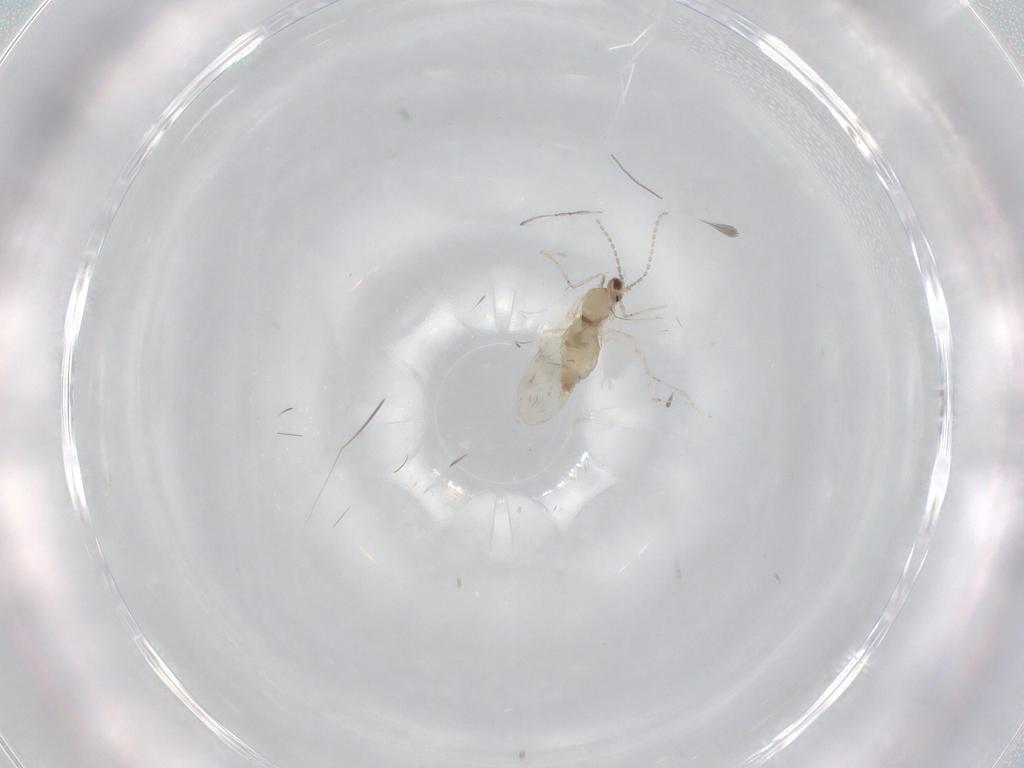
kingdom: Animalia
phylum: Arthropoda
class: Insecta
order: Diptera
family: Cecidomyiidae
